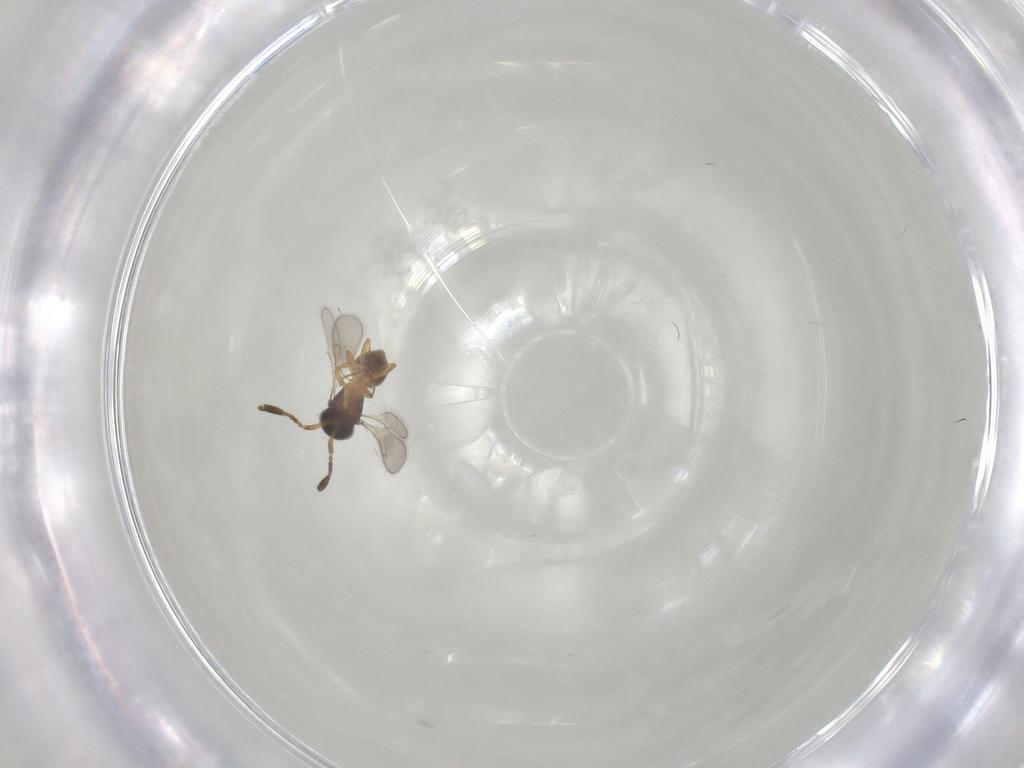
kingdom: Animalia
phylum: Arthropoda
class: Insecta
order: Hymenoptera
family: Scelionidae
